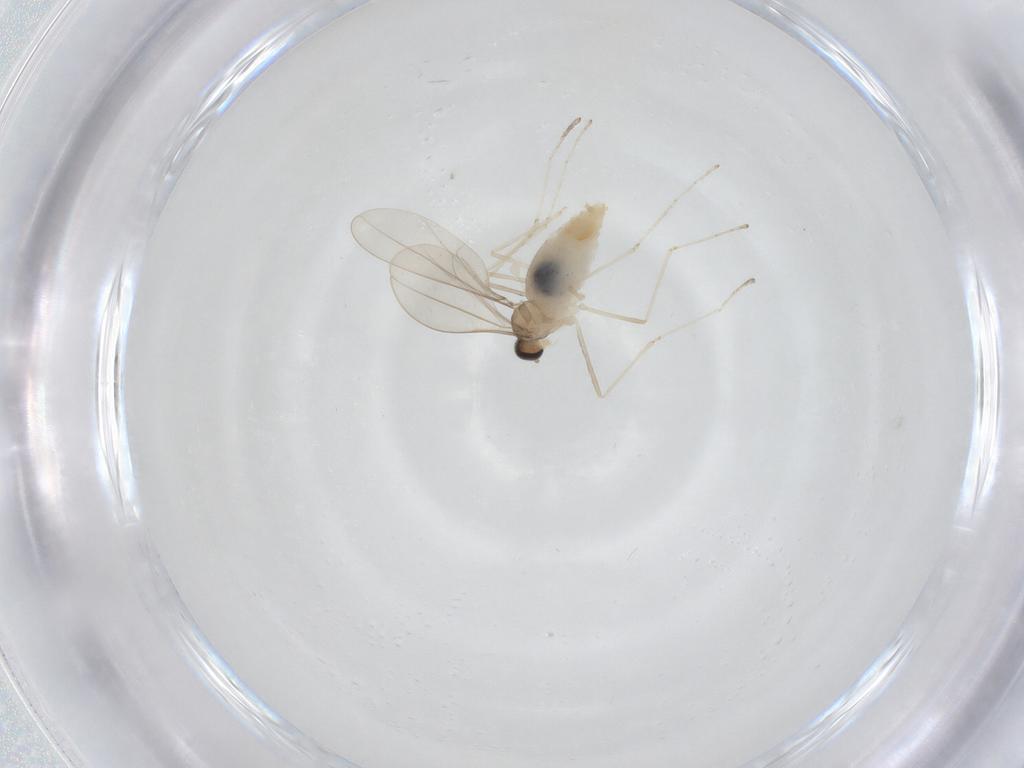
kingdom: Animalia
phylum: Arthropoda
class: Insecta
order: Diptera
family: Cecidomyiidae
